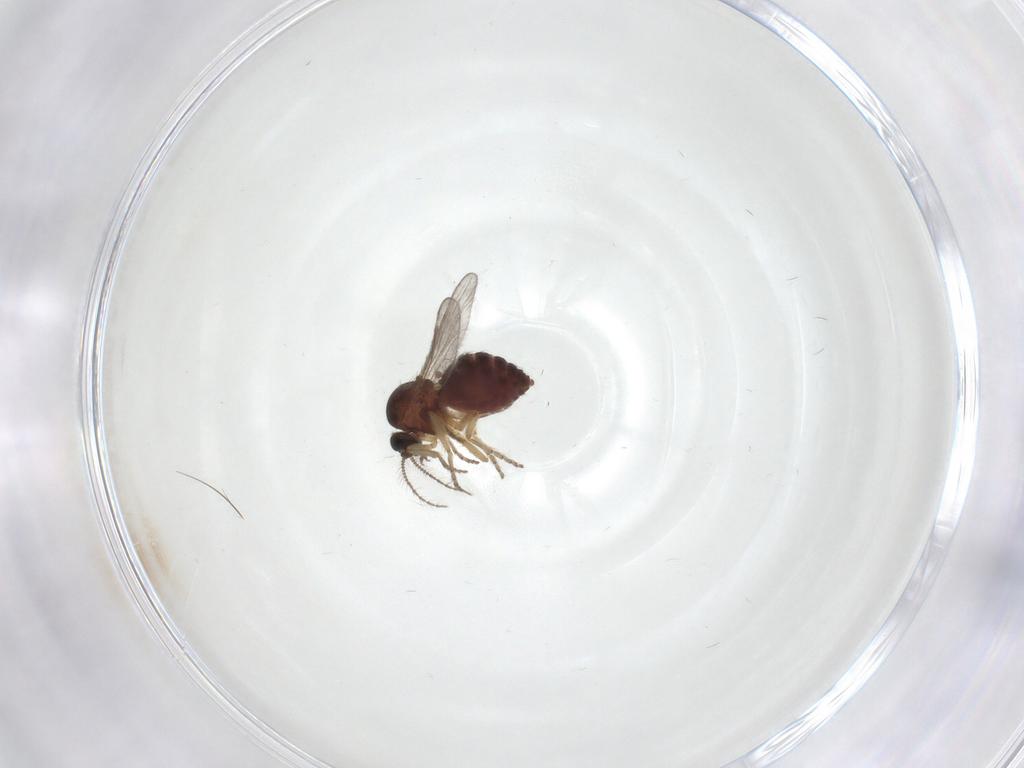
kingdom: Animalia
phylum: Arthropoda
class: Insecta
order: Diptera
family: Ceratopogonidae
